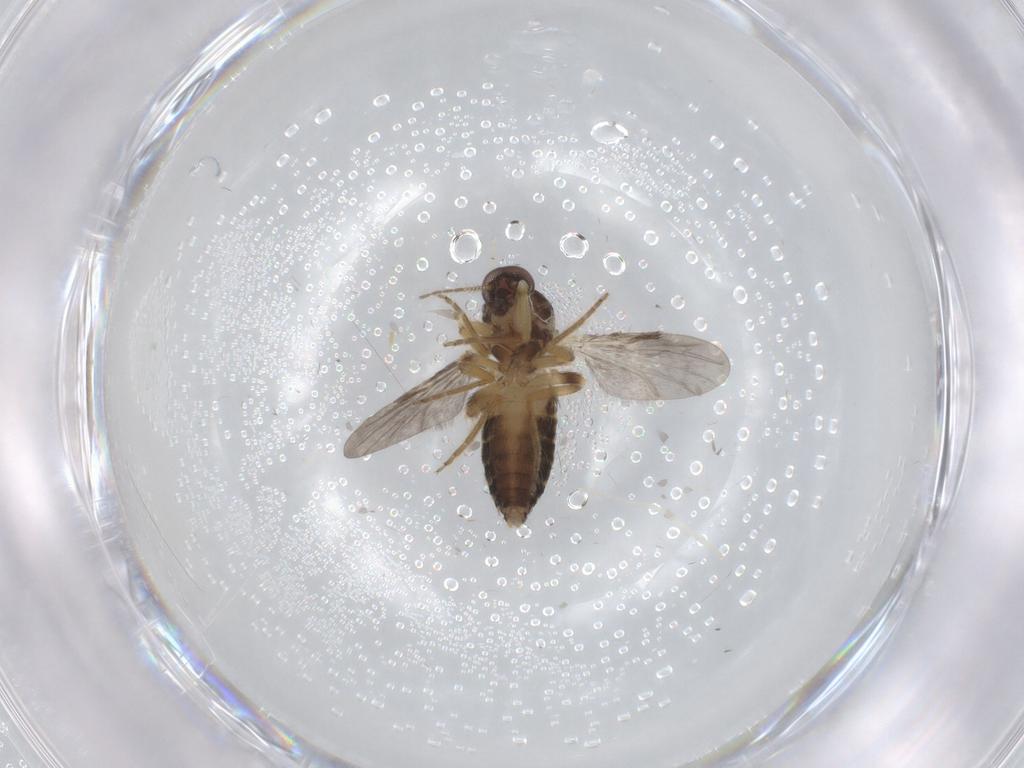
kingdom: Animalia
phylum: Arthropoda
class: Insecta
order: Diptera
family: Ceratopogonidae
